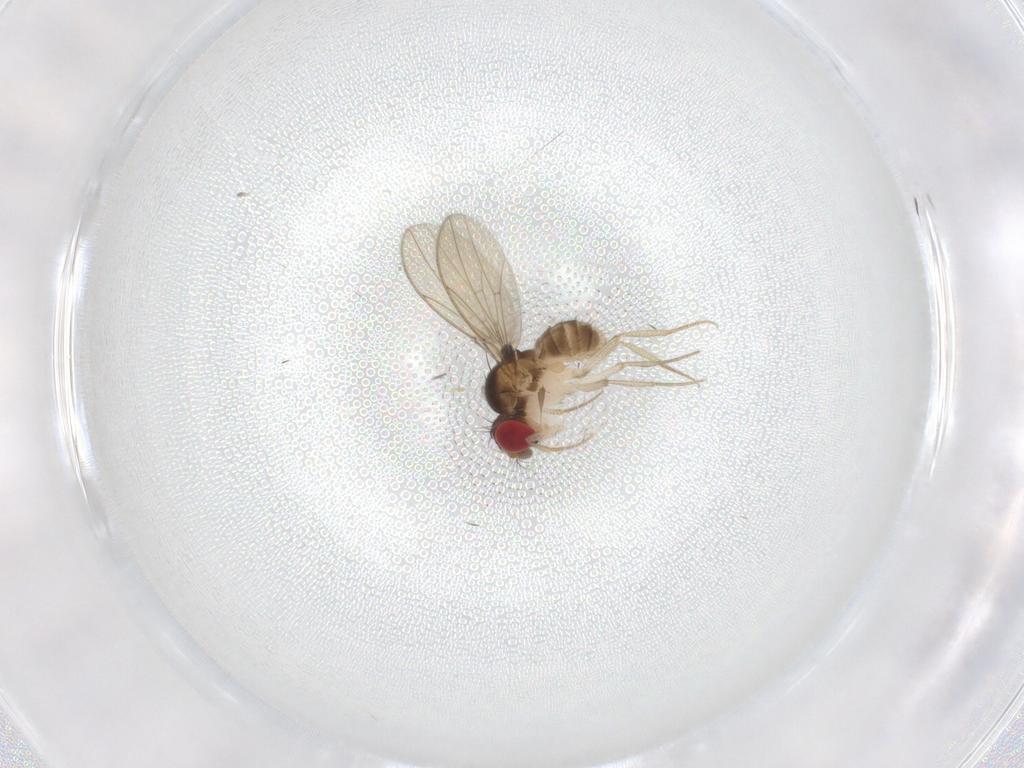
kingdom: Animalia
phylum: Arthropoda
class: Insecta
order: Diptera
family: Drosophilidae
